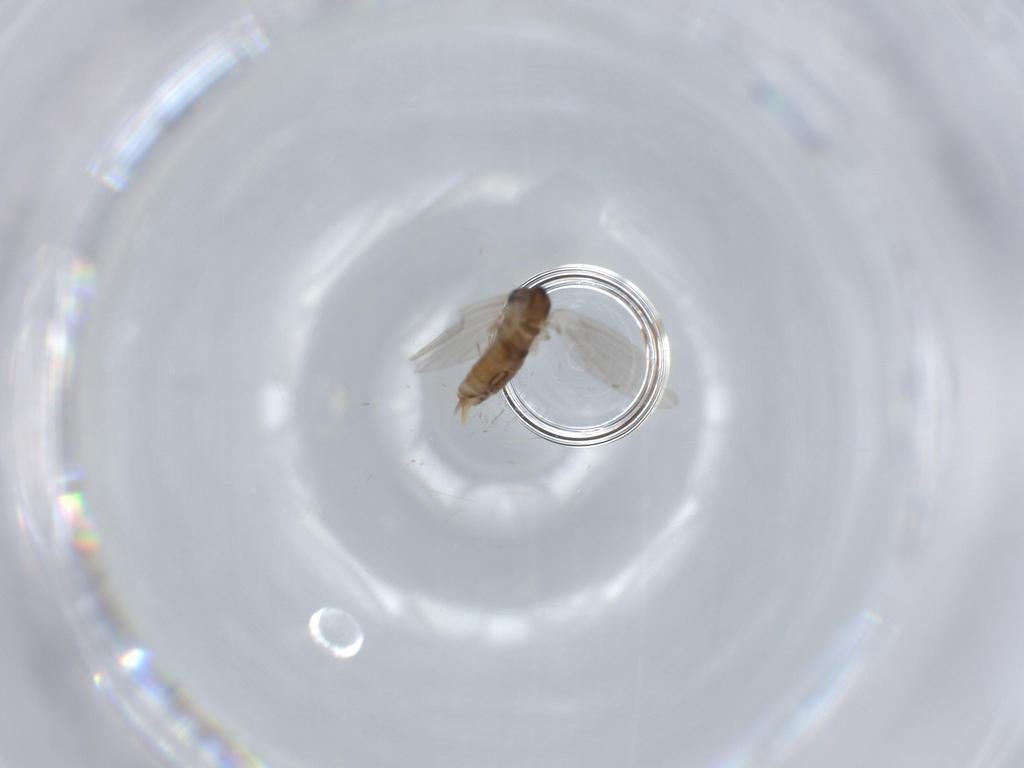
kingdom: Animalia
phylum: Arthropoda
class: Insecta
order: Diptera
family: Psychodidae
